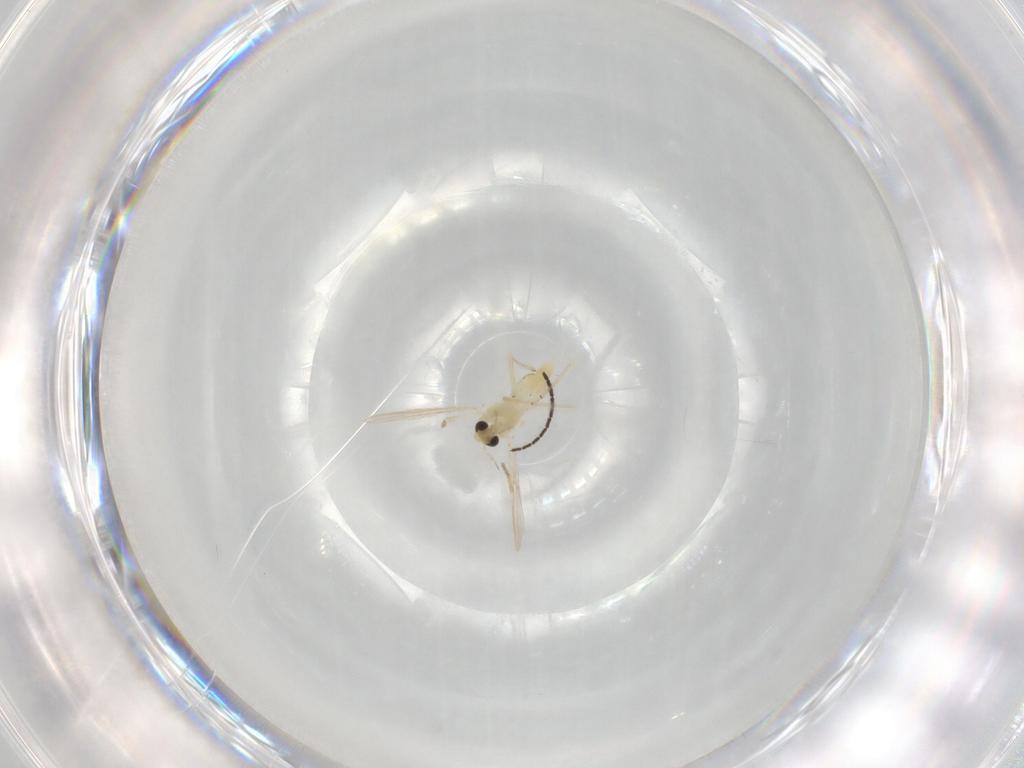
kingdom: Animalia
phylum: Arthropoda
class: Insecta
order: Diptera
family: Chironomidae
